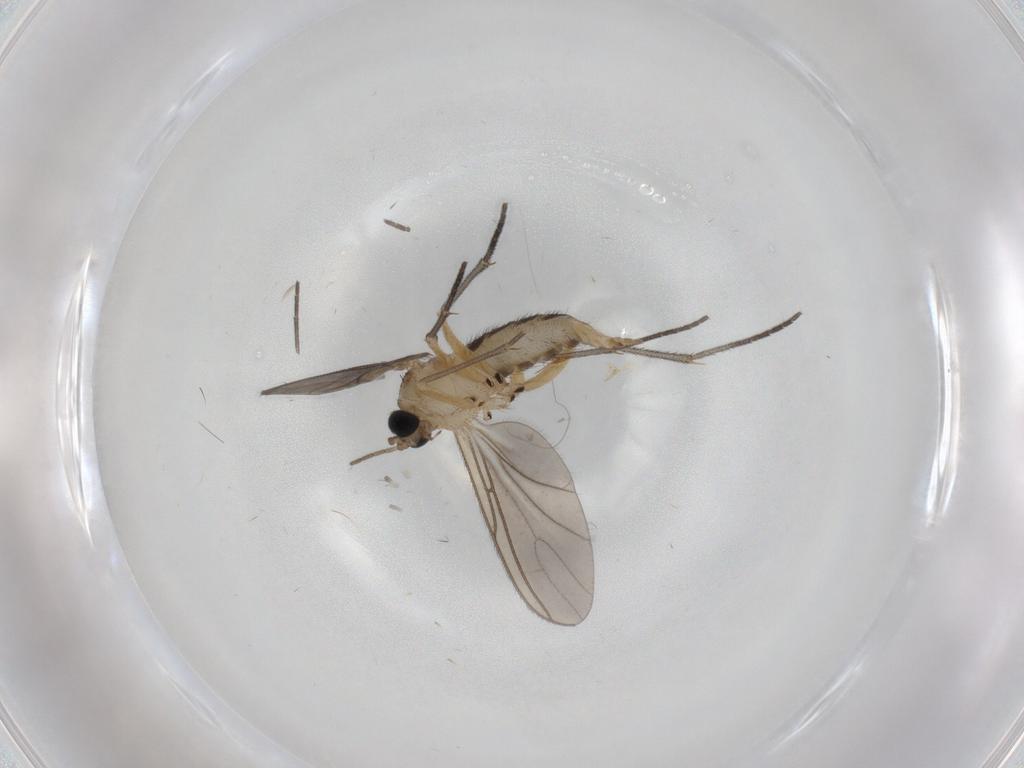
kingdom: Animalia
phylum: Arthropoda
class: Insecta
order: Diptera
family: Sciaridae
